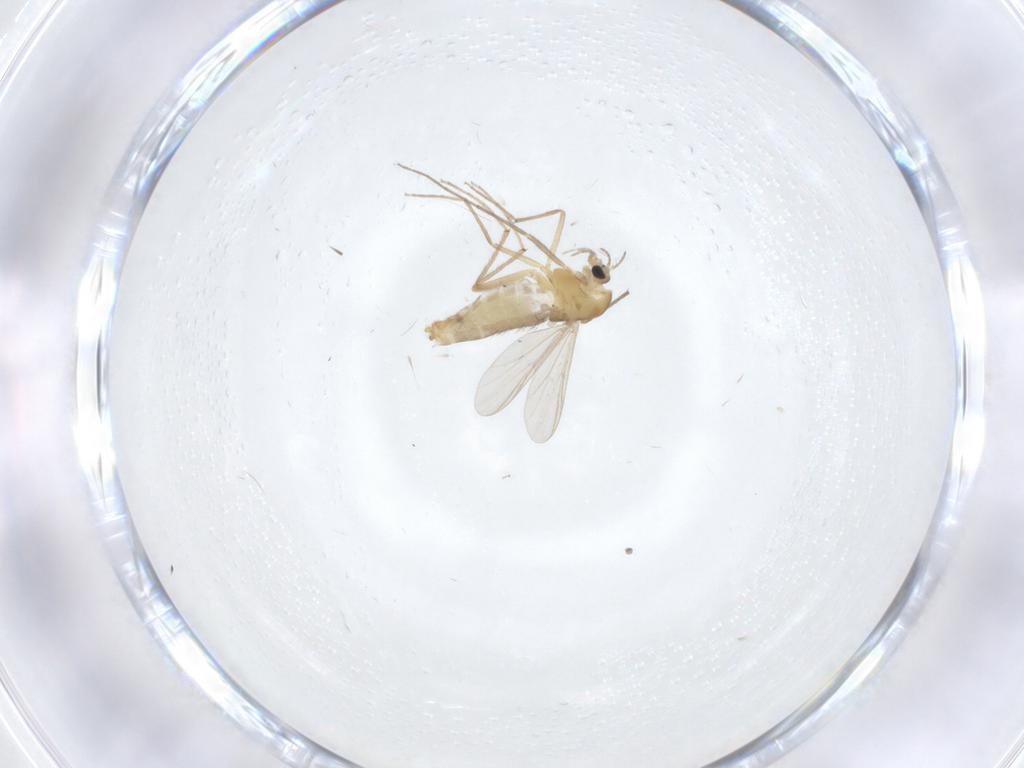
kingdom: Animalia
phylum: Arthropoda
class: Insecta
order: Diptera
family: Chironomidae
